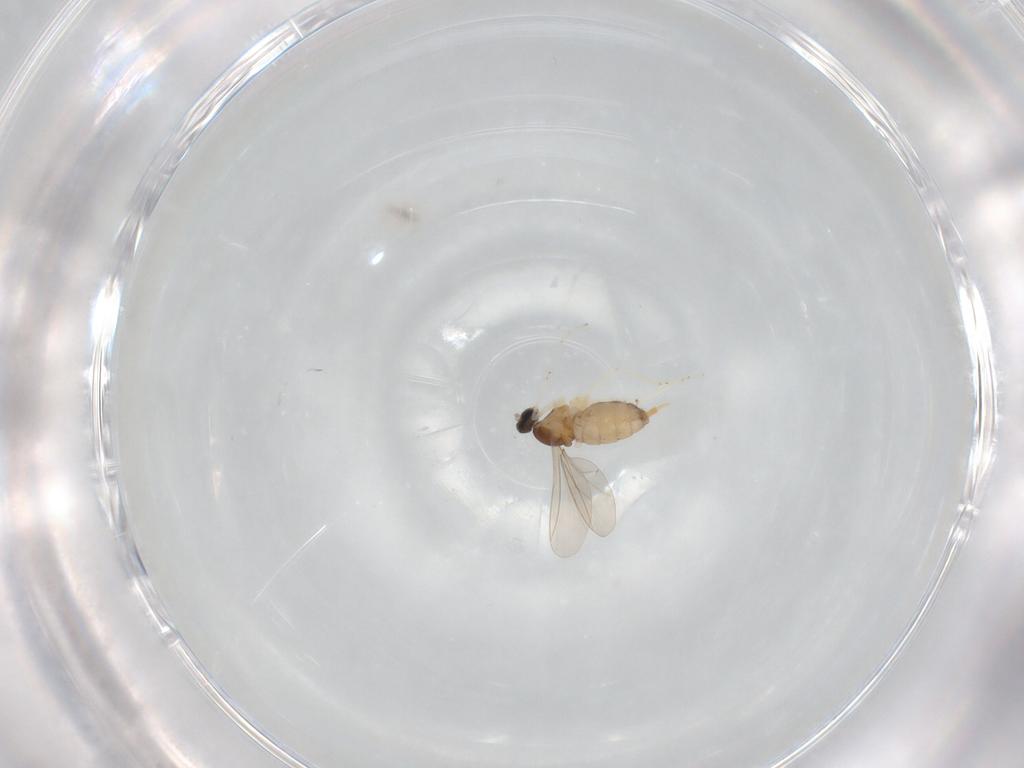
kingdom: Animalia
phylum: Arthropoda
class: Insecta
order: Diptera
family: Cecidomyiidae
